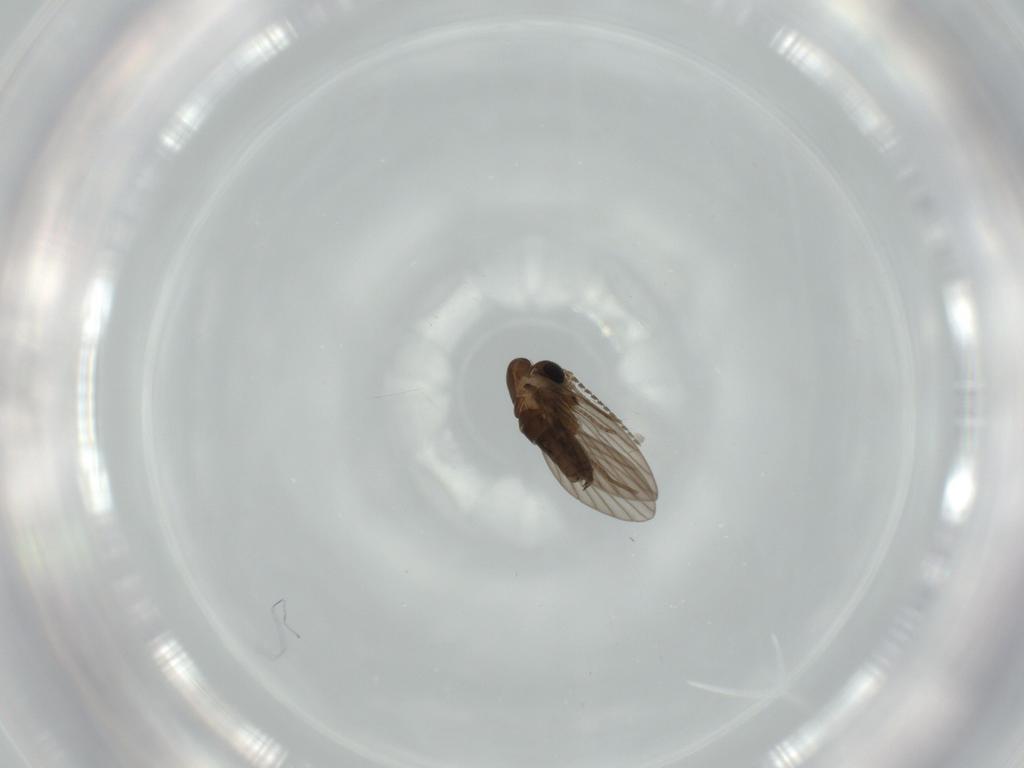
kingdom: Animalia
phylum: Arthropoda
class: Insecta
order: Diptera
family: Psychodidae
